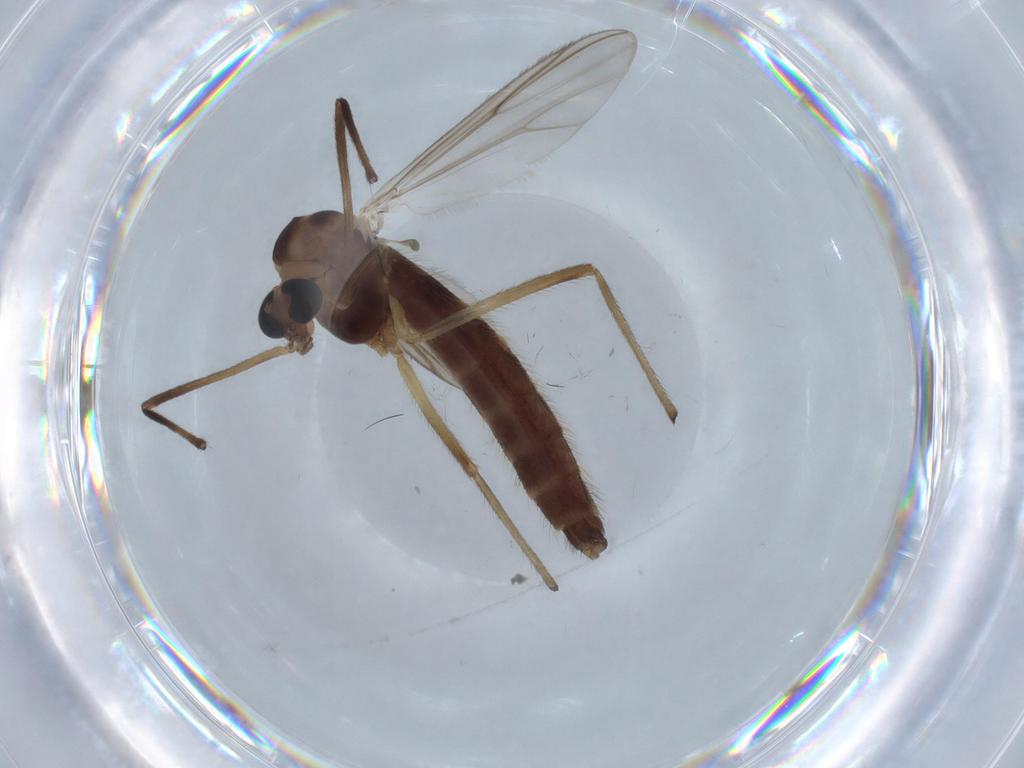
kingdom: Animalia
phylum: Arthropoda
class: Insecta
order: Diptera
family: Chironomidae
